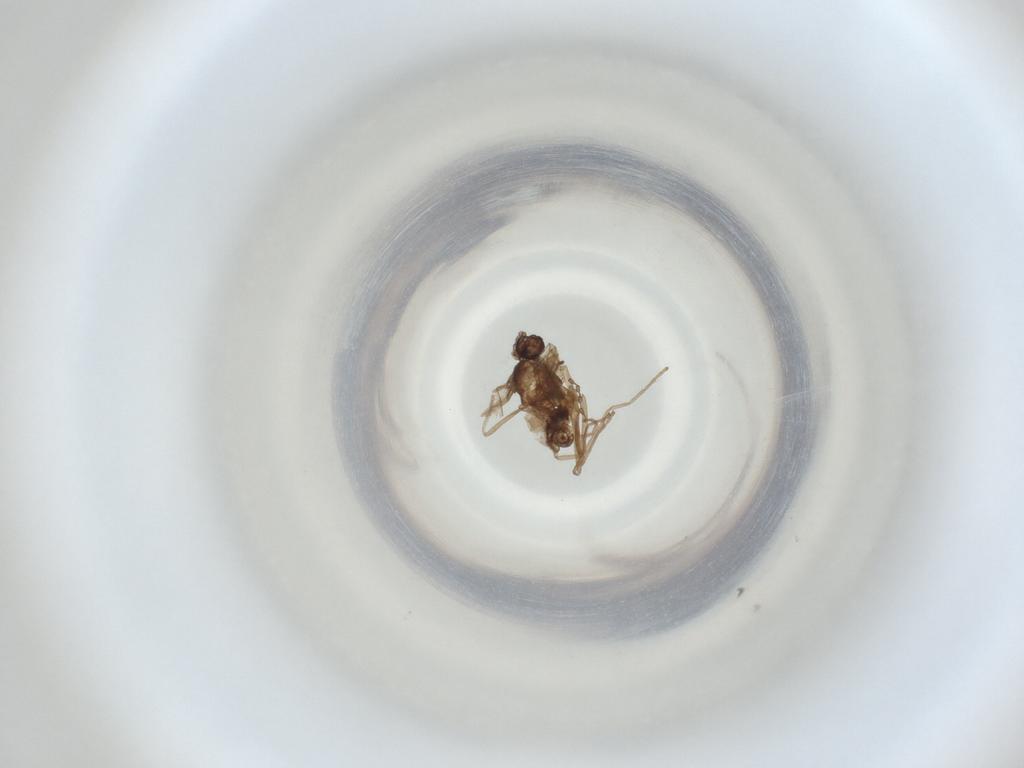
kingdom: Animalia
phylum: Arthropoda
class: Insecta
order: Diptera
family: Cecidomyiidae
